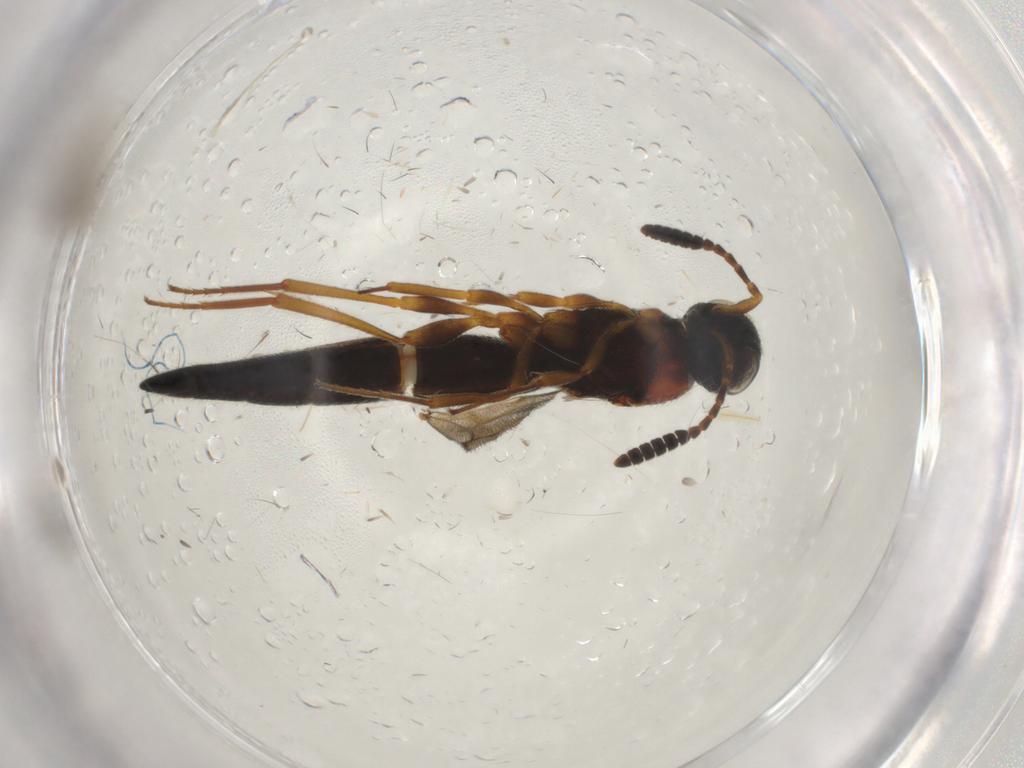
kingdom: Animalia
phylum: Arthropoda
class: Insecta
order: Hymenoptera
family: Scelionidae
